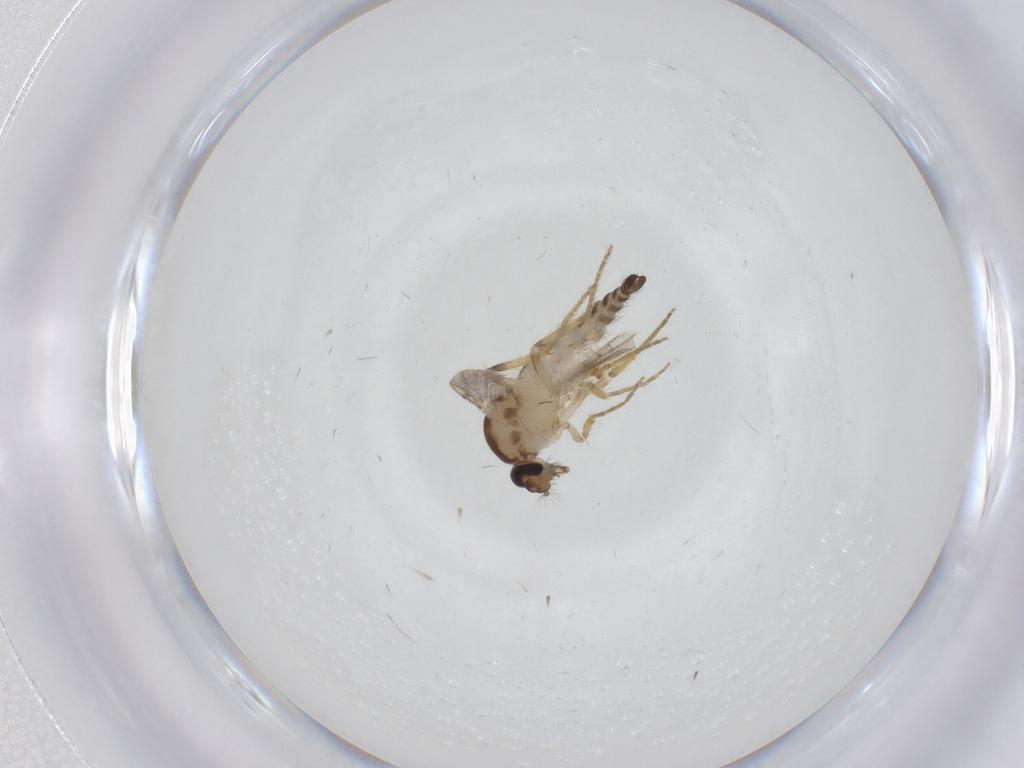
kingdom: Animalia
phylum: Arthropoda
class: Insecta
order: Diptera
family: Cecidomyiidae
